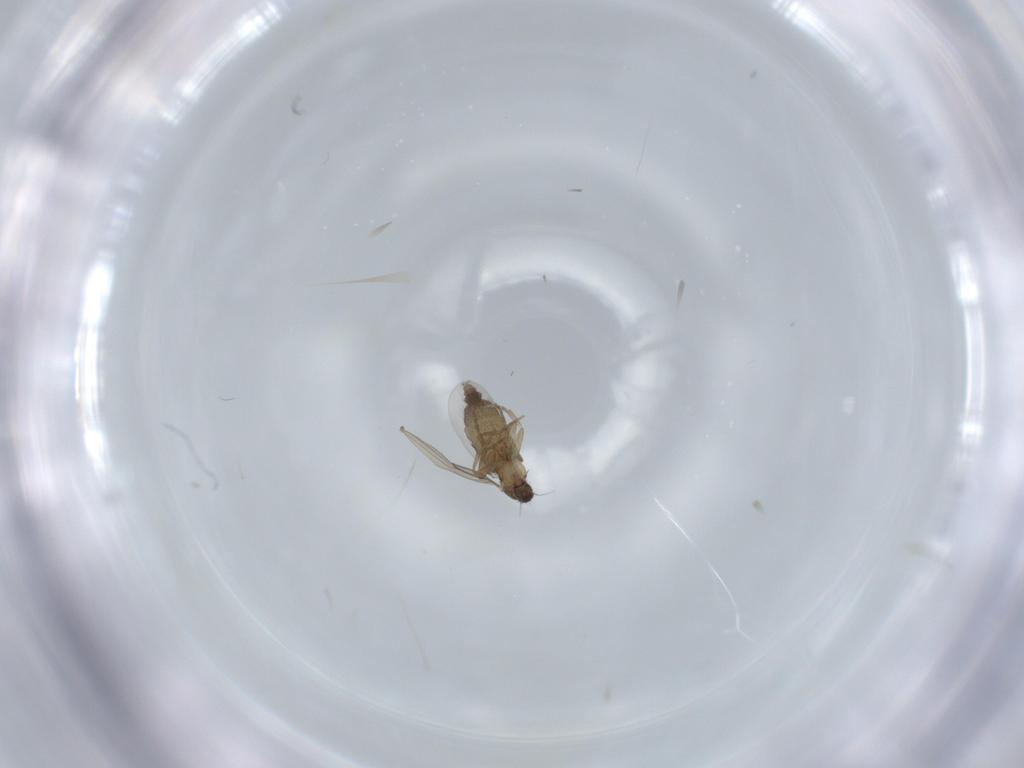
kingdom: Animalia
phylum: Arthropoda
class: Insecta
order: Diptera
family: Phoridae
